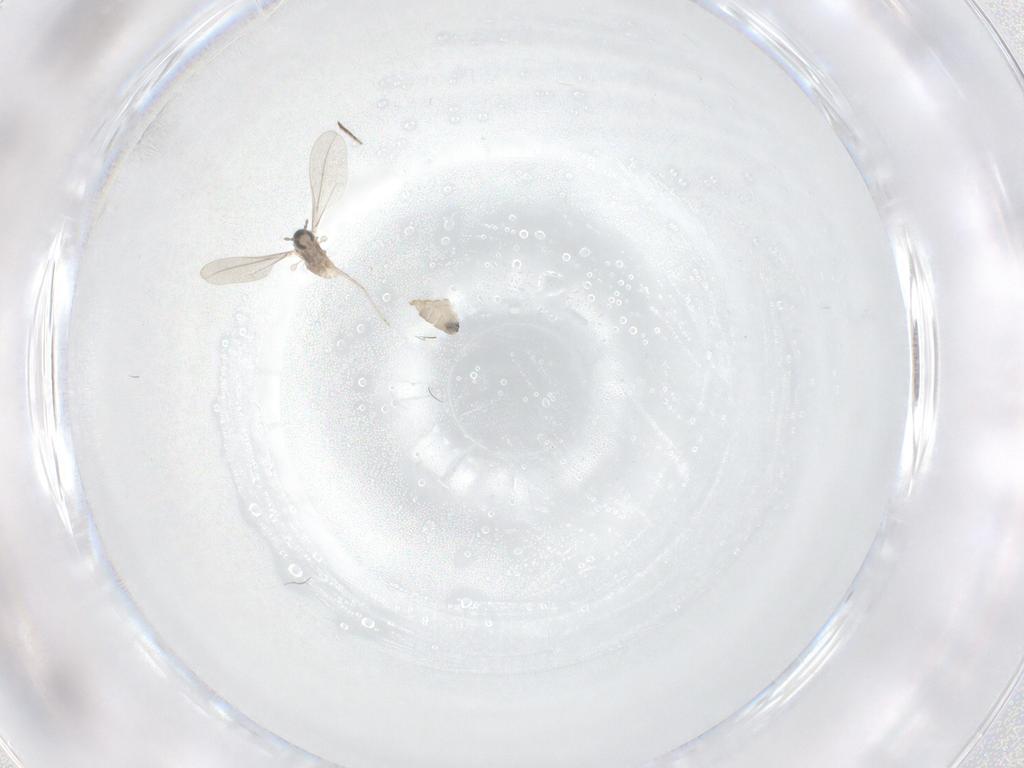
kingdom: Animalia
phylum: Arthropoda
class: Insecta
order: Diptera
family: Cecidomyiidae
